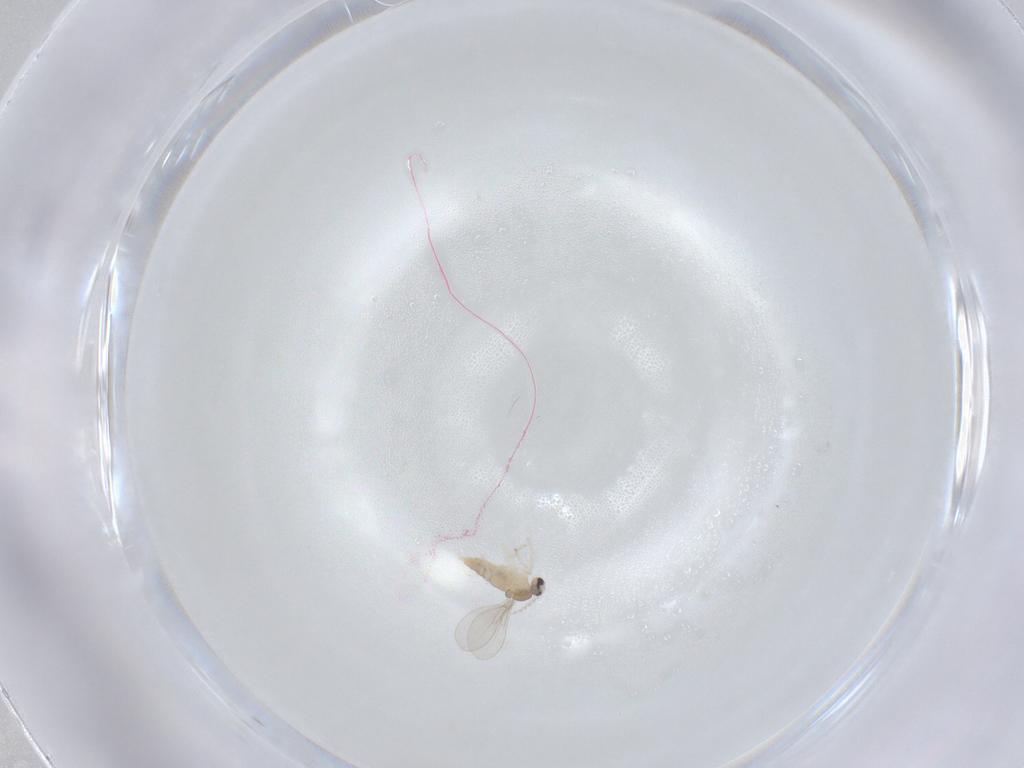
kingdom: Animalia
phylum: Arthropoda
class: Insecta
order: Diptera
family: Cecidomyiidae
